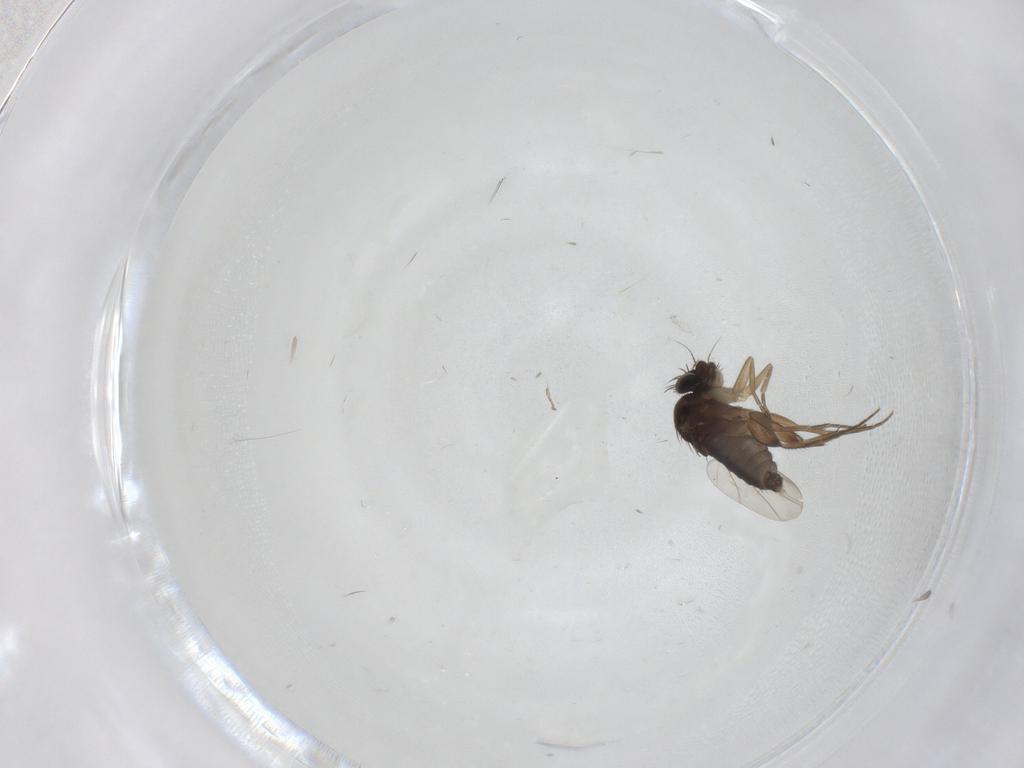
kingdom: Animalia
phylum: Arthropoda
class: Insecta
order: Diptera
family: Phoridae
